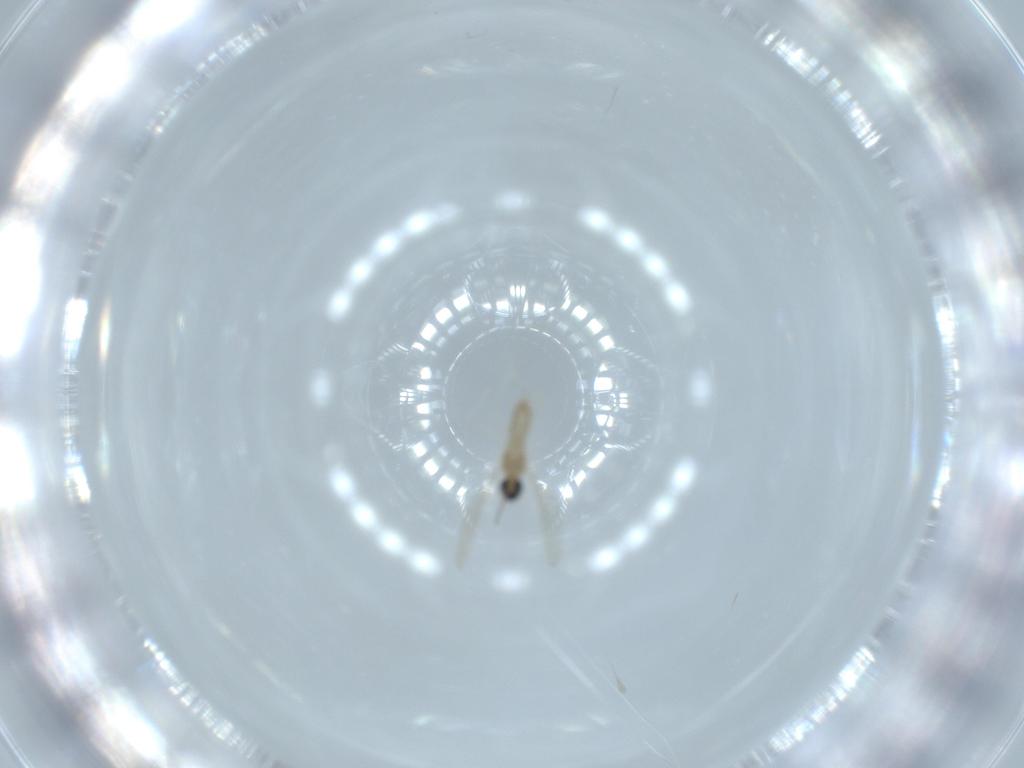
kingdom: Animalia
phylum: Arthropoda
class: Insecta
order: Diptera
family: Cecidomyiidae
